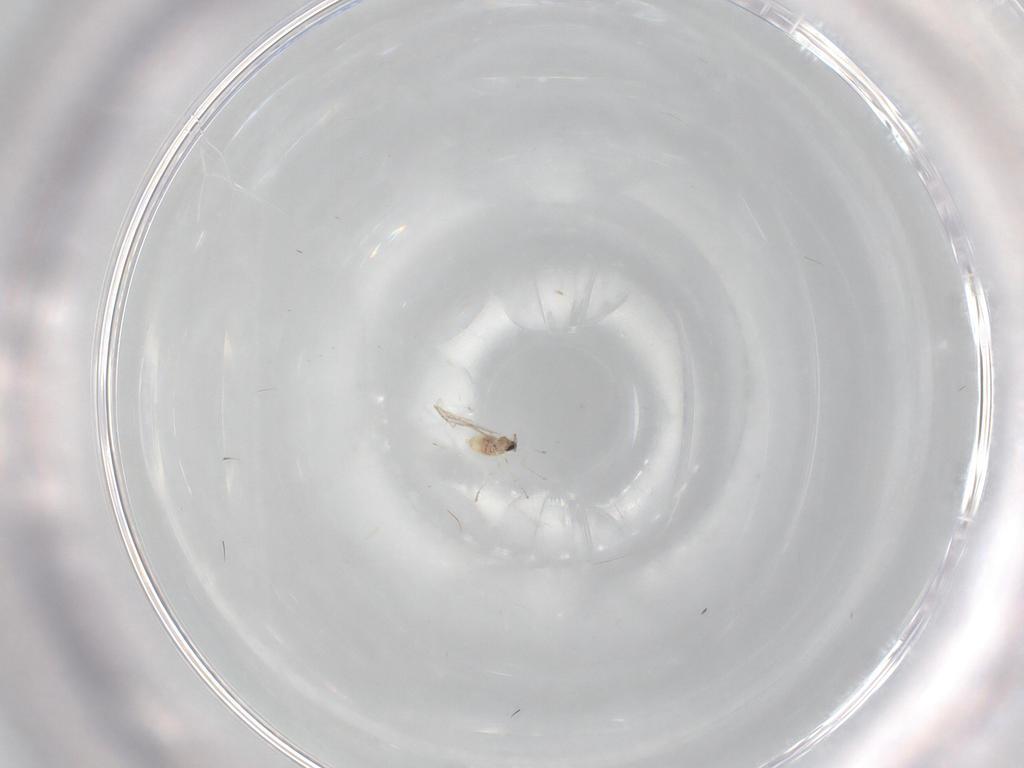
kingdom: Animalia
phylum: Arthropoda
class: Insecta
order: Diptera
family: Cecidomyiidae
